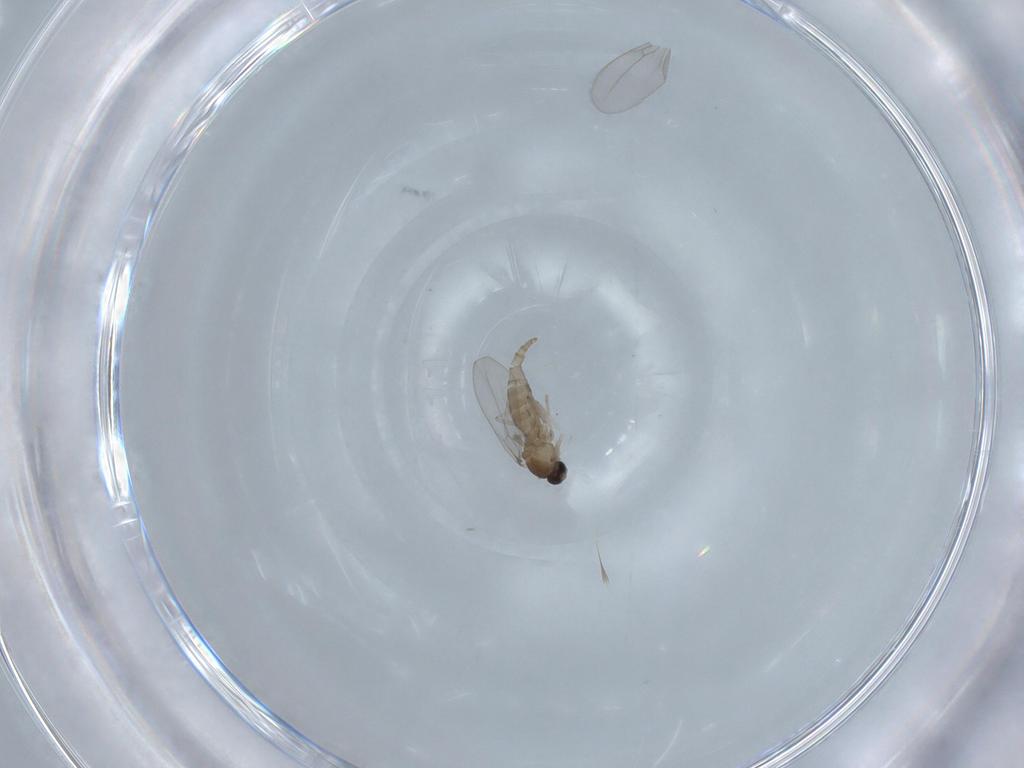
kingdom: Animalia
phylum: Arthropoda
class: Insecta
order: Diptera
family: Cecidomyiidae
